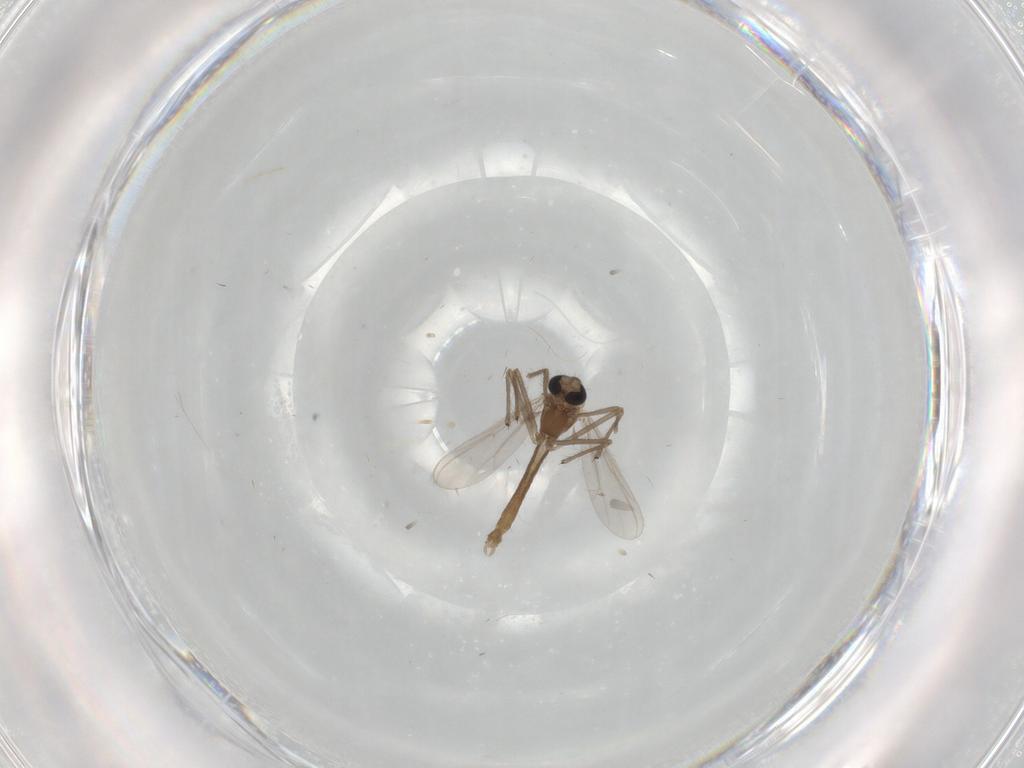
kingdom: Animalia
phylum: Arthropoda
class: Insecta
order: Diptera
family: Chironomidae
